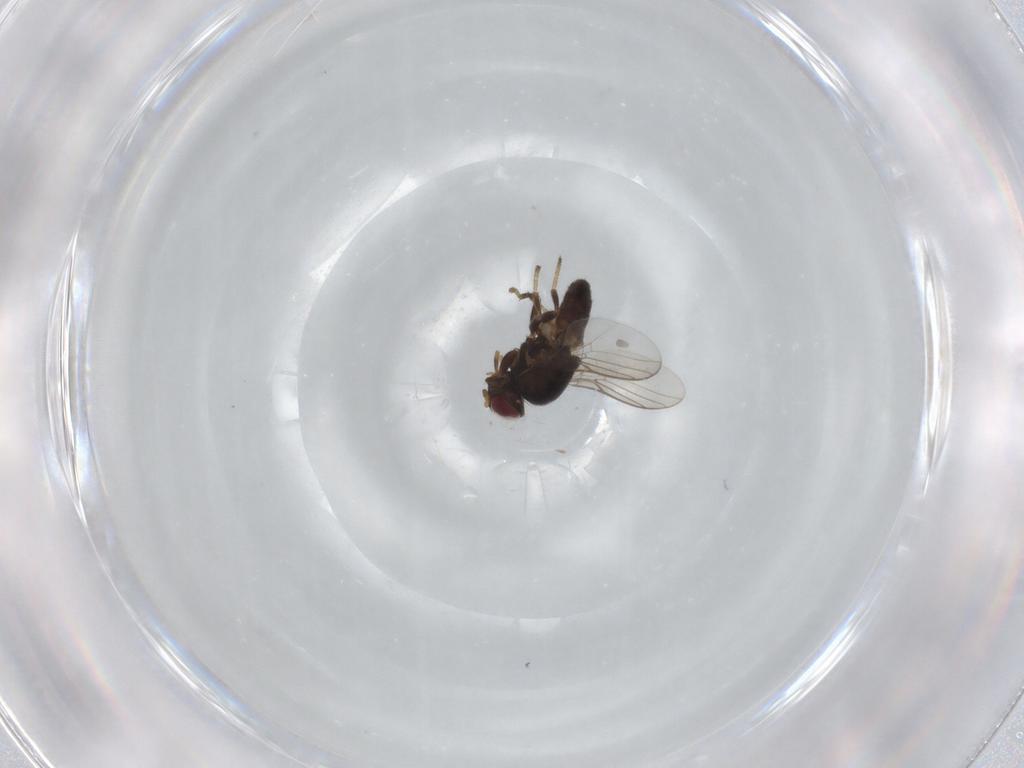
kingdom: Animalia
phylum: Arthropoda
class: Insecta
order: Diptera
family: Chloropidae
